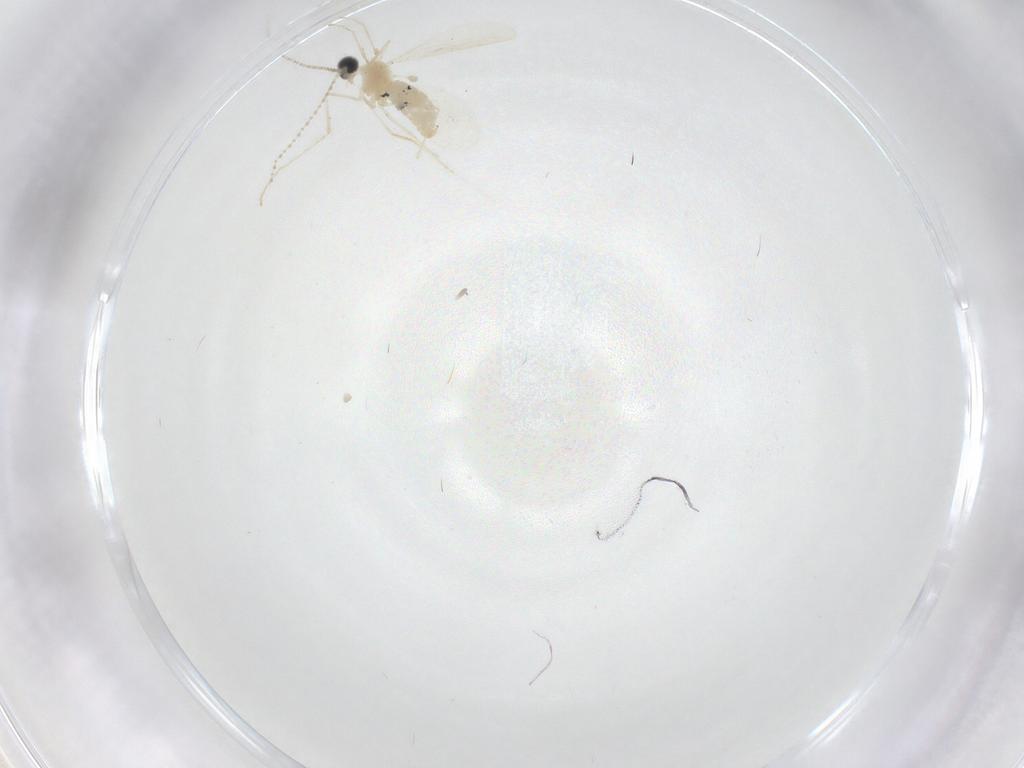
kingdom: Animalia
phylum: Arthropoda
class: Insecta
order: Diptera
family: Cecidomyiidae
